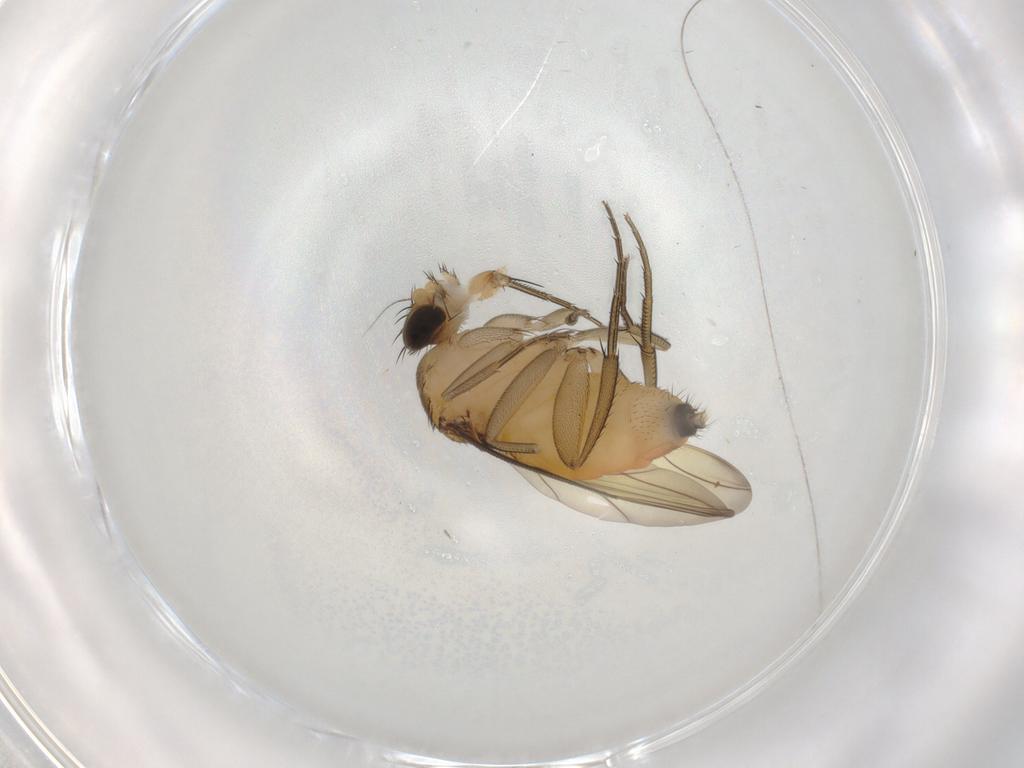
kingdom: Animalia
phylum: Arthropoda
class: Insecta
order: Diptera
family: Phoridae
